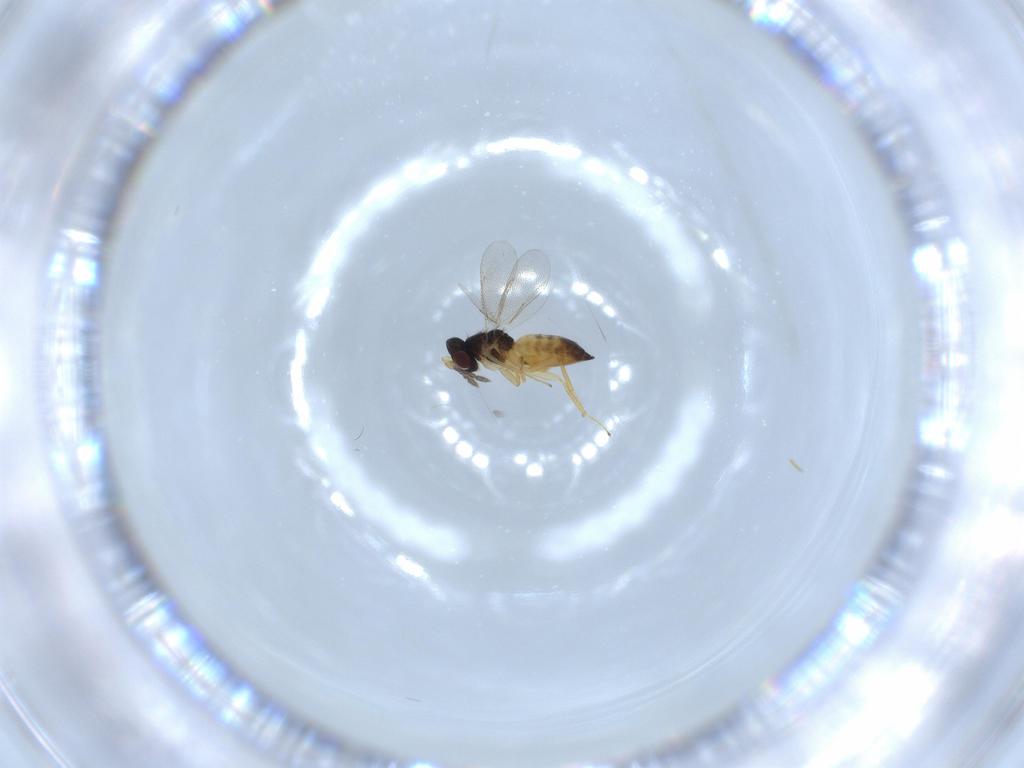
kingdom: Animalia
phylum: Arthropoda
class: Insecta
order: Hymenoptera
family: Eulophidae
